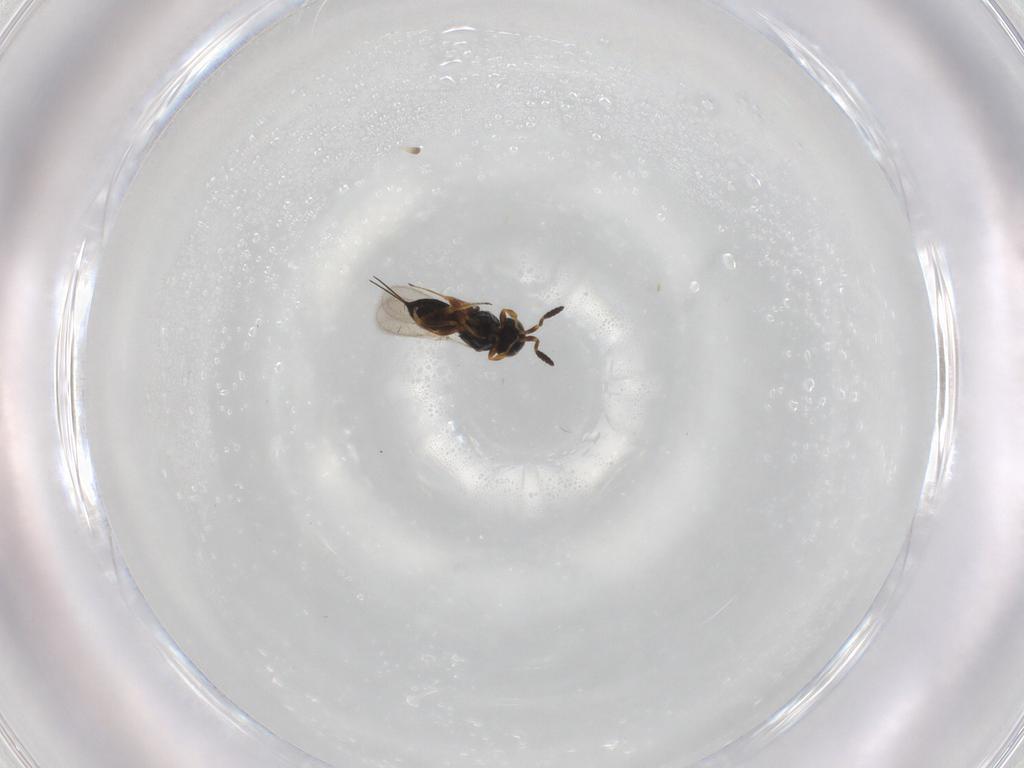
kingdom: Animalia
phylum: Arthropoda
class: Insecta
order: Hymenoptera
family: Scelionidae
